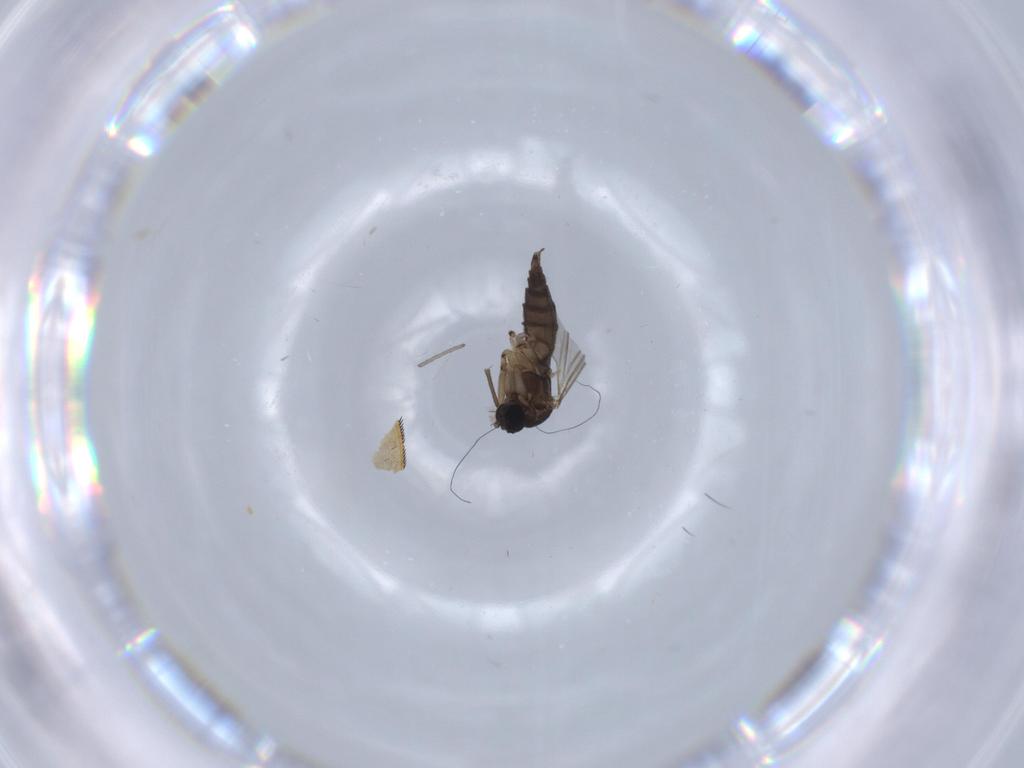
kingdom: Animalia
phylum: Arthropoda
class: Insecta
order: Diptera
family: Sciaridae
